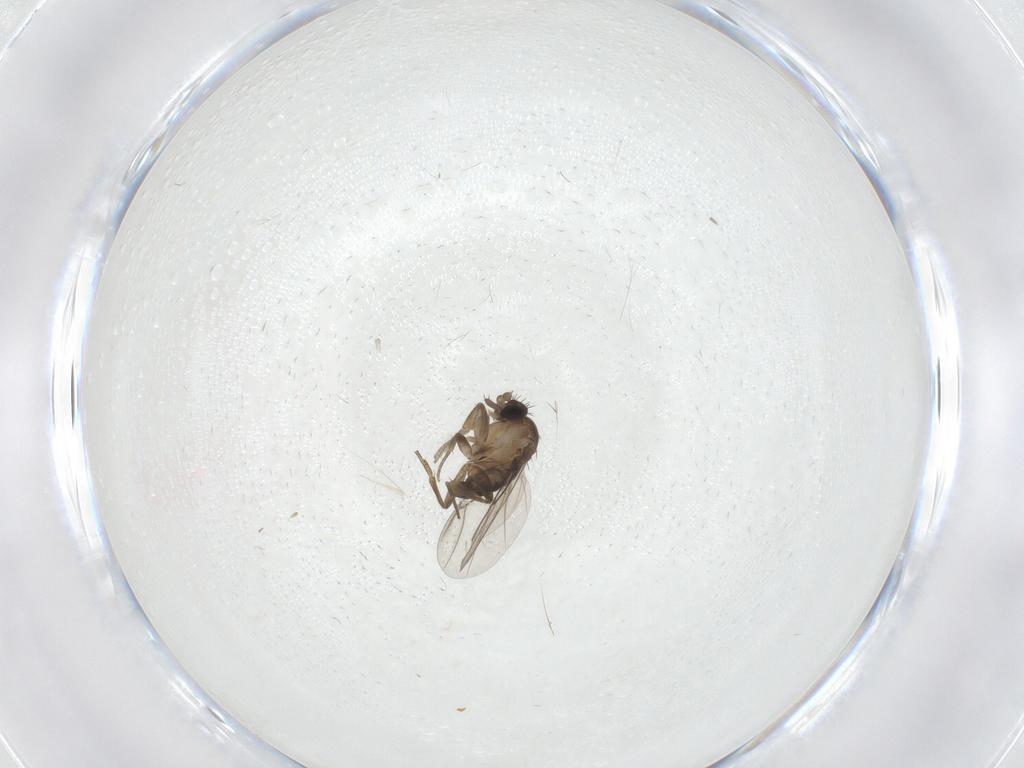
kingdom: Animalia
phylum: Arthropoda
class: Insecta
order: Diptera
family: Phoridae
